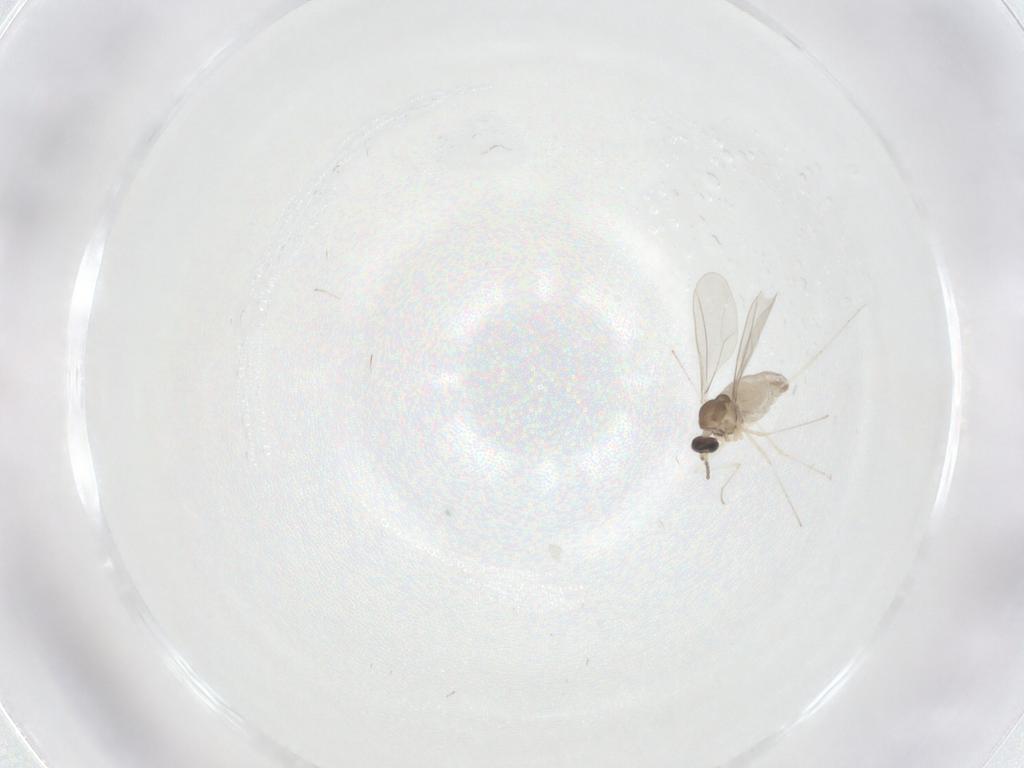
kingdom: Animalia
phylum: Arthropoda
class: Insecta
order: Diptera
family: Cecidomyiidae
